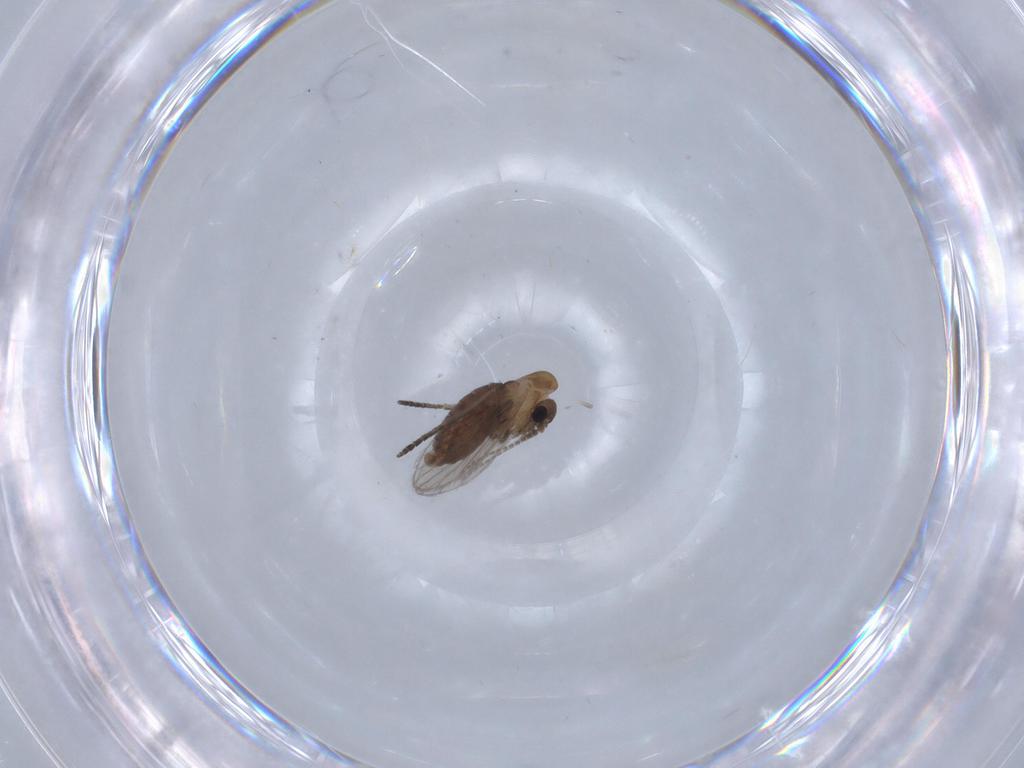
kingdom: Animalia
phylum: Arthropoda
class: Insecta
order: Diptera
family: Psychodidae
